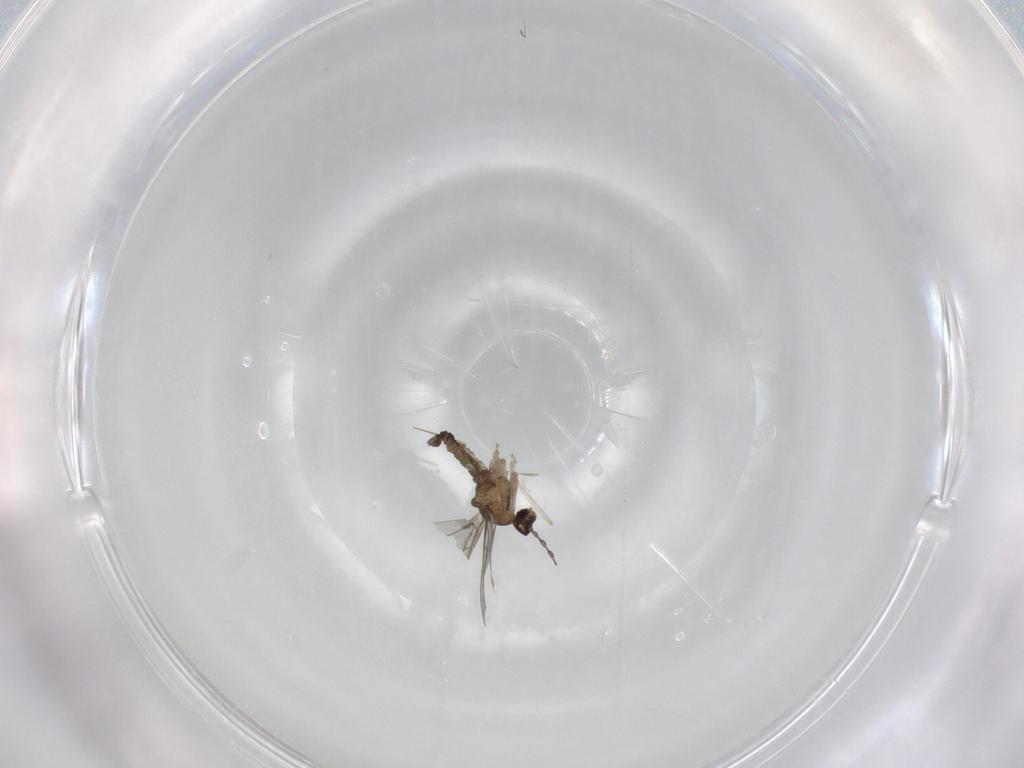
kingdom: Animalia
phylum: Arthropoda
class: Insecta
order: Diptera
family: Cecidomyiidae
